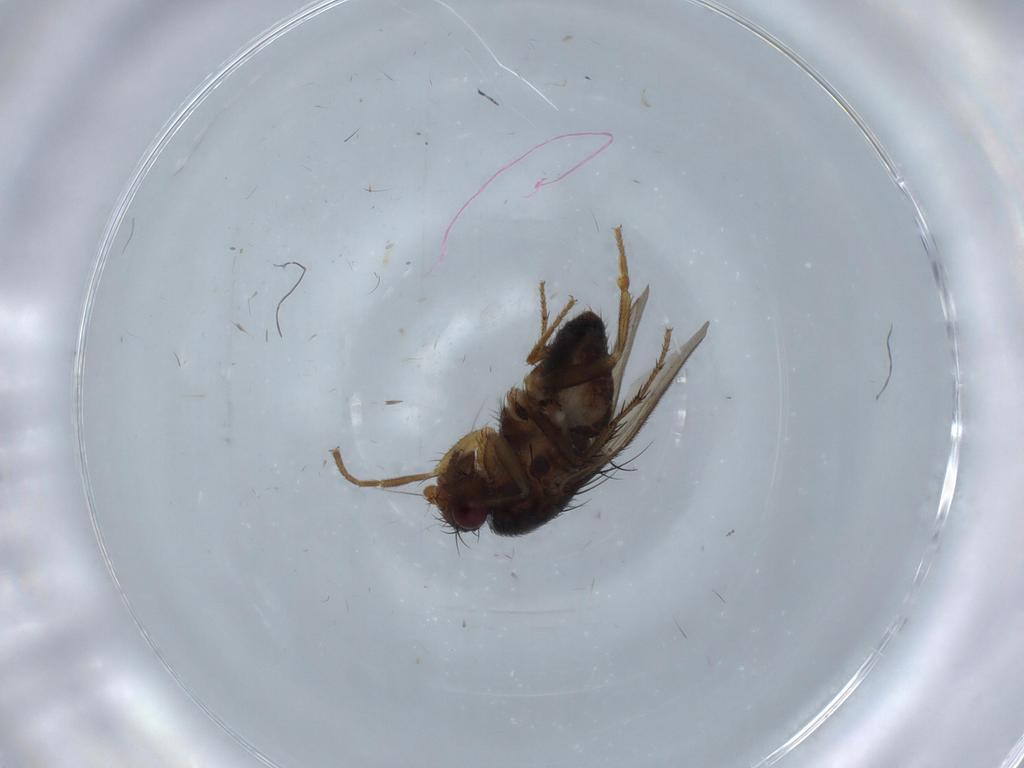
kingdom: Animalia
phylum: Arthropoda
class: Insecta
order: Diptera
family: Sphaeroceridae
